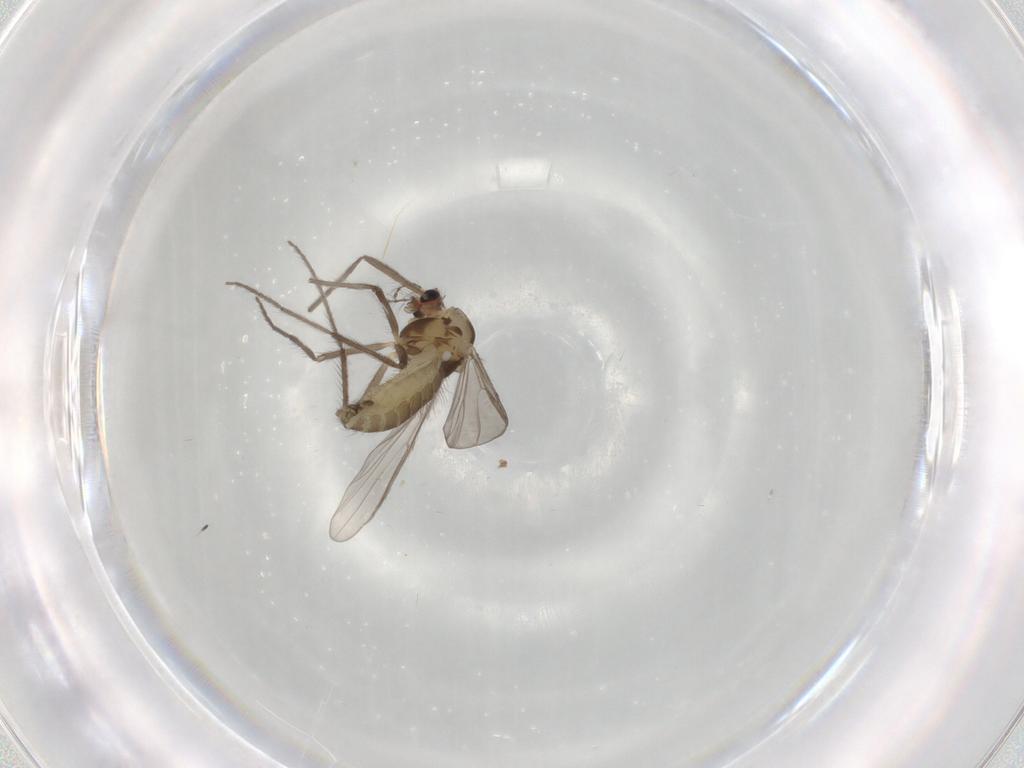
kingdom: Animalia
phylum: Arthropoda
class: Insecta
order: Diptera
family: Chironomidae
